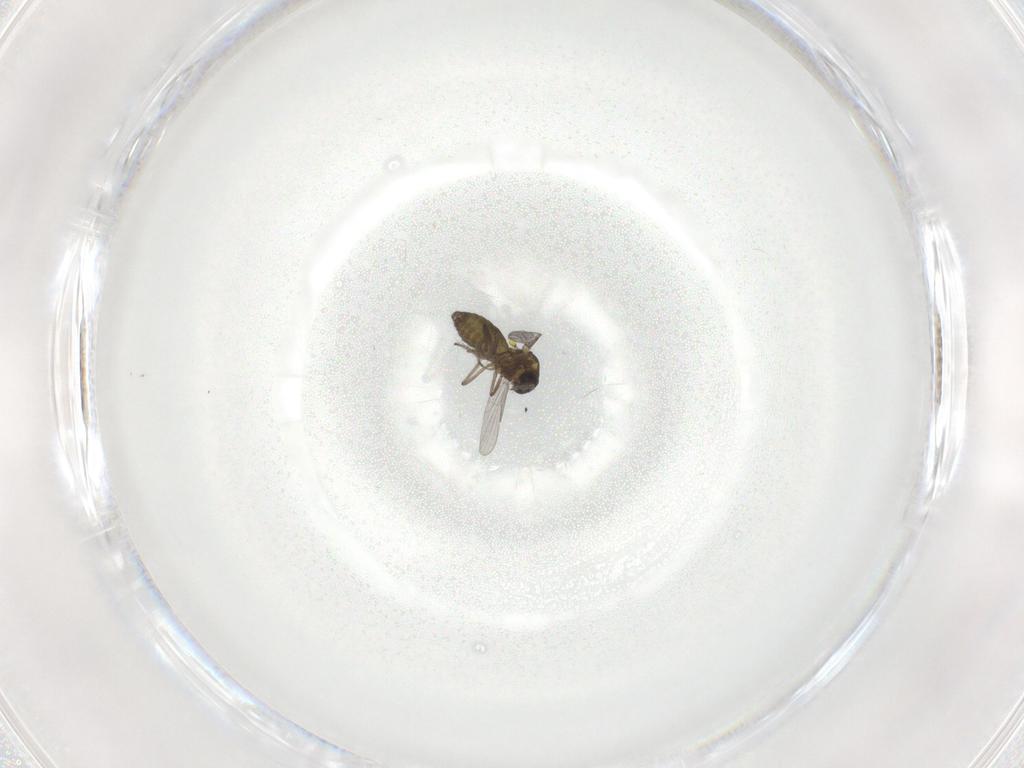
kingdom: Animalia
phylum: Arthropoda
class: Insecta
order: Diptera
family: Ceratopogonidae
